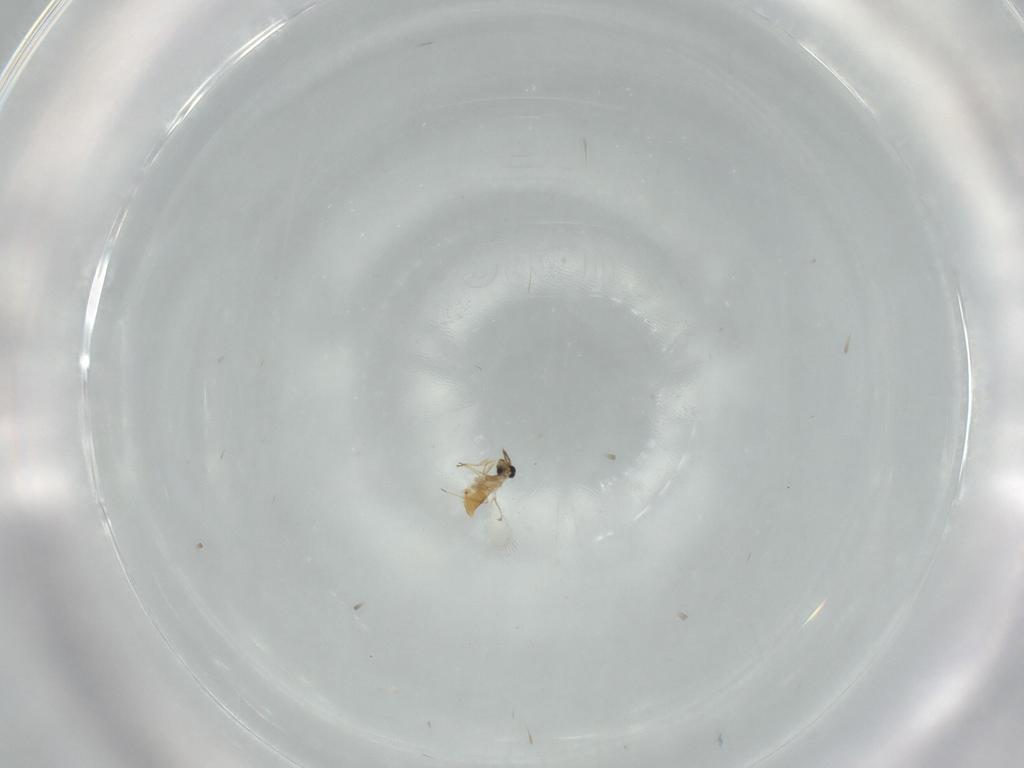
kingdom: Animalia
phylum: Arthropoda
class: Insecta
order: Hymenoptera
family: Trichogrammatidae
